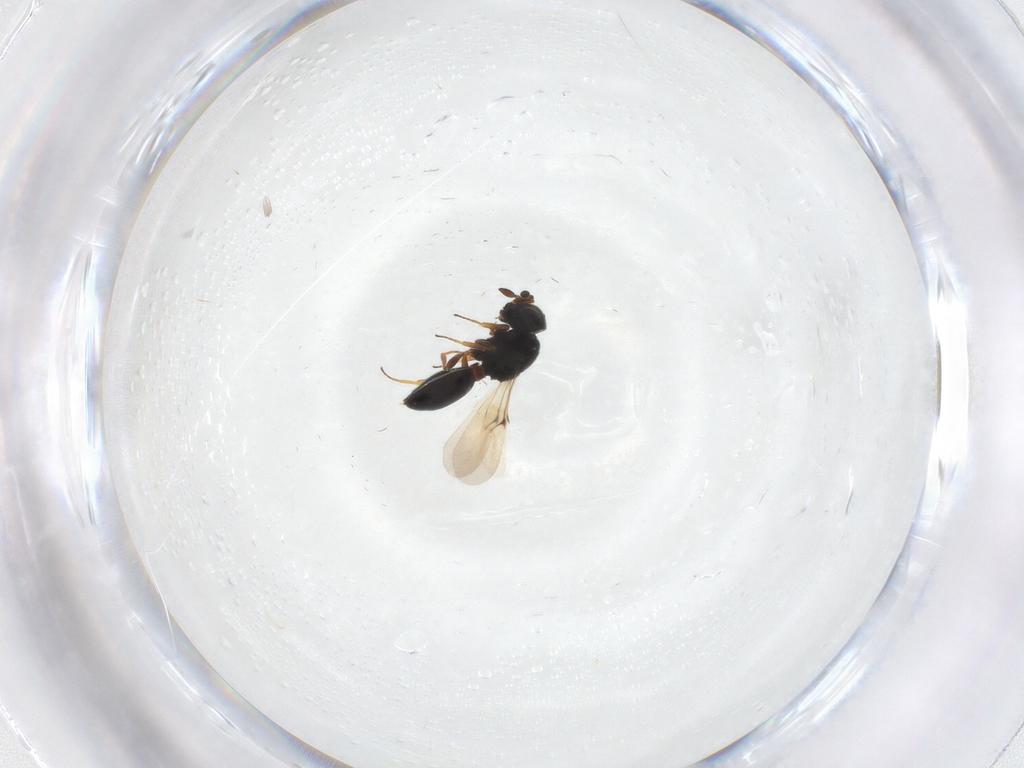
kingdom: Animalia
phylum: Arthropoda
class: Insecta
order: Hymenoptera
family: Scelionidae
